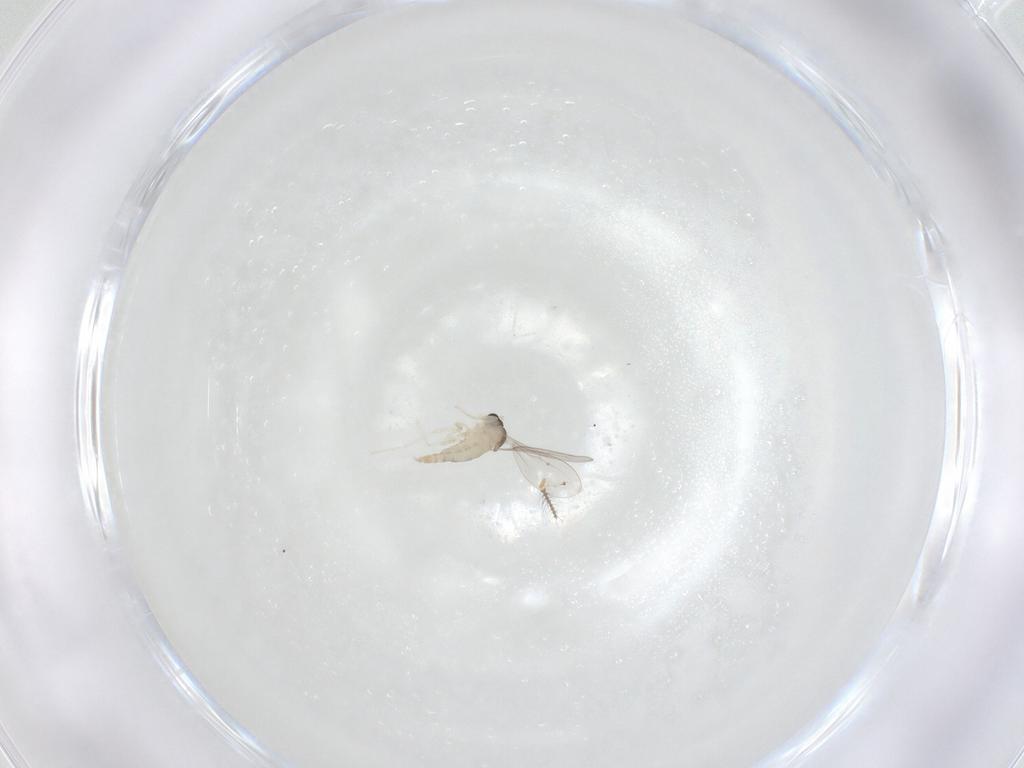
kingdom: Animalia
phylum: Arthropoda
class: Insecta
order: Diptera
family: Cecidomyiidae
